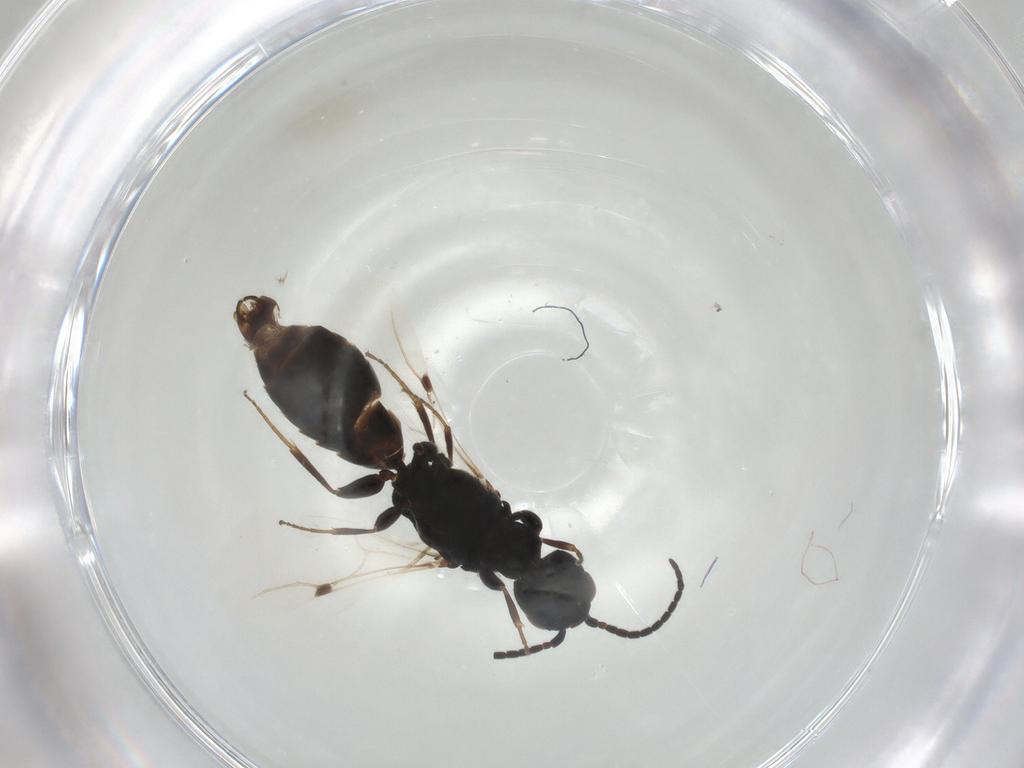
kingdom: Animalia
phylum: Arthropoda
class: Insecta
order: Hymenoptera
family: Bethylidae
